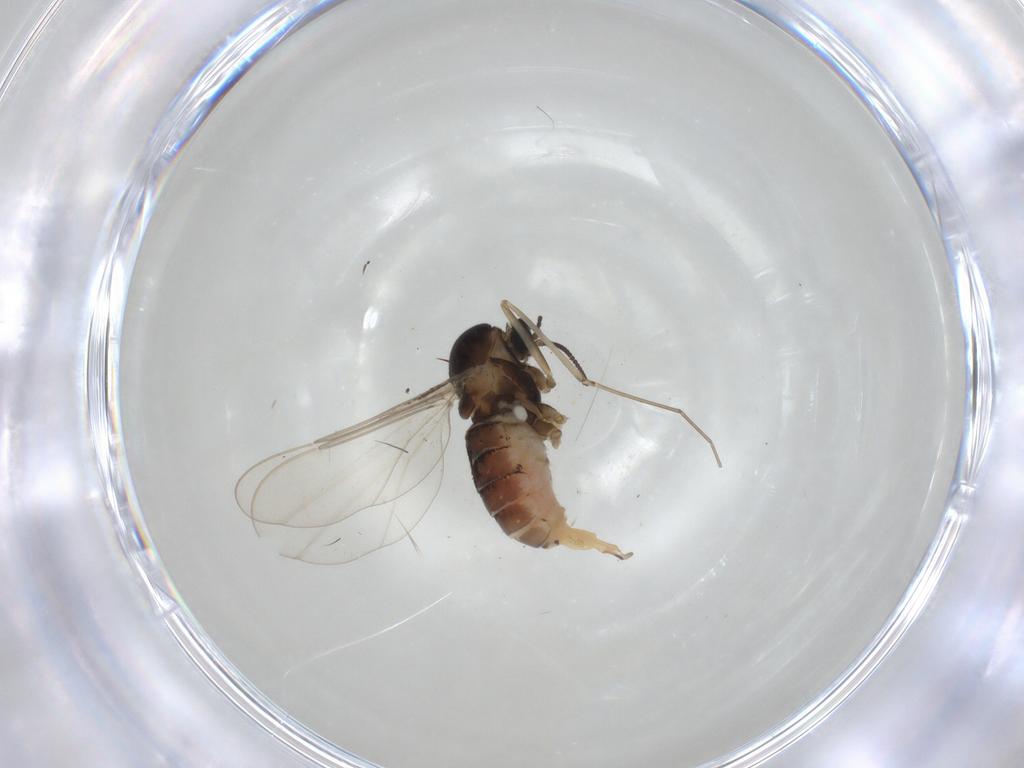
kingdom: Animalia
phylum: Arthropoda
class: Insecta
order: Diptera
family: Cecidomyiidae
